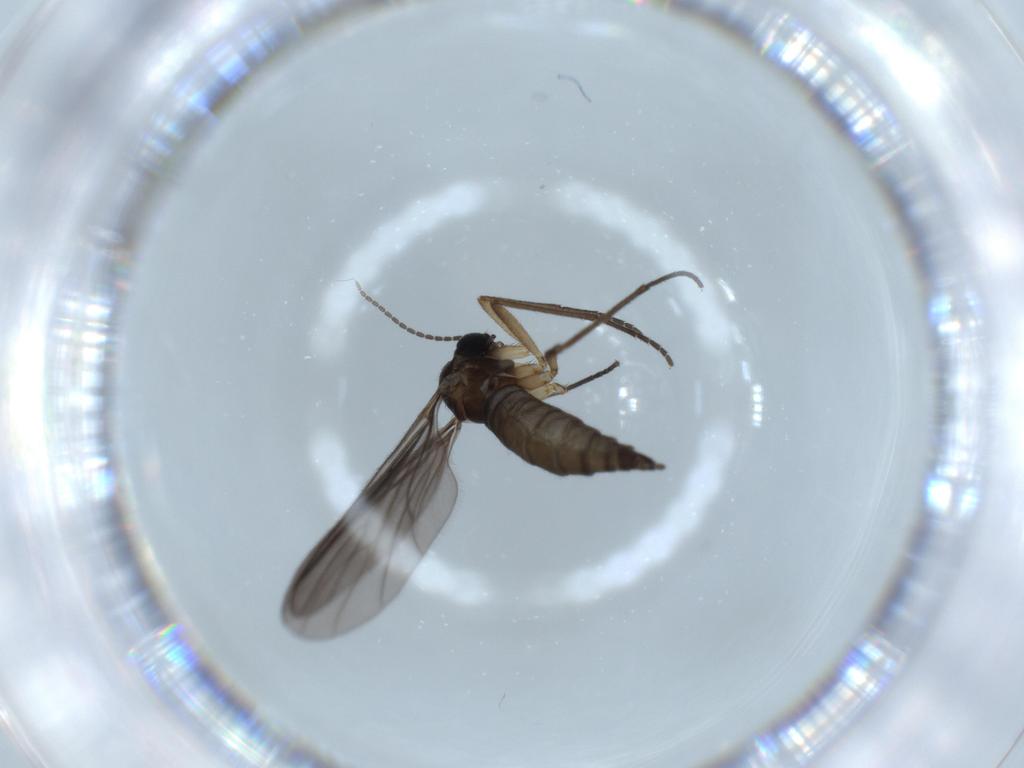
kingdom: Animalia
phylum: Arthropoda
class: Insecta
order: Diptera
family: Sciaridae
